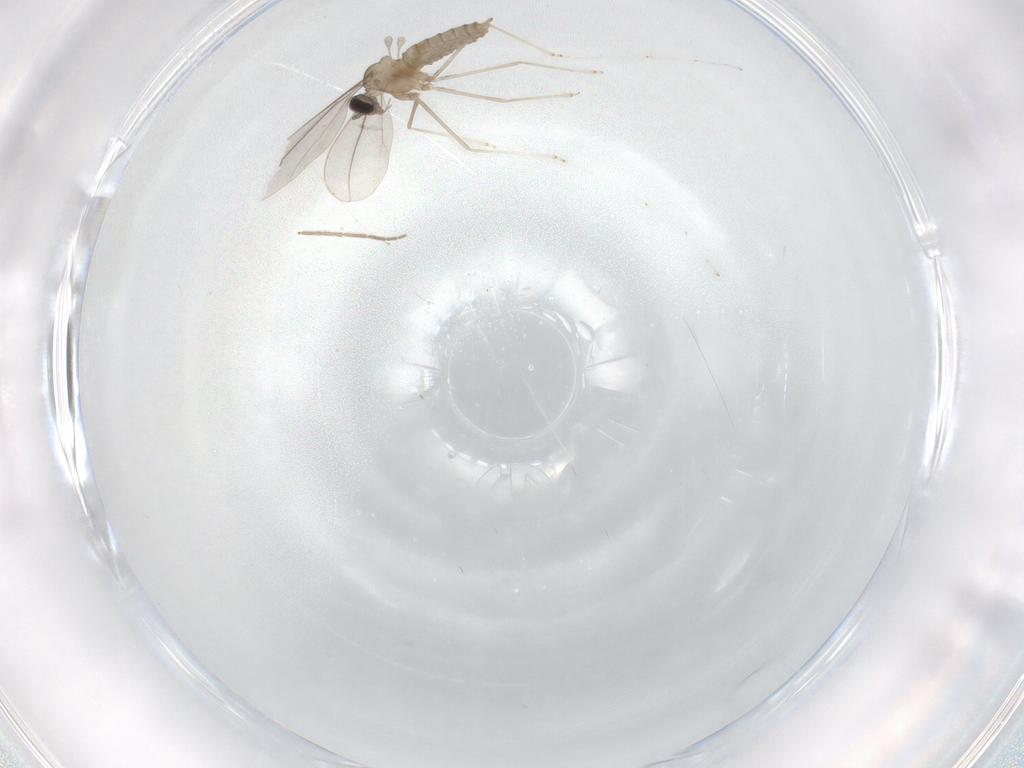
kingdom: Animalia
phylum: Arthropoda
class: Insecta
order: Diptera
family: Cecidomyiidae
